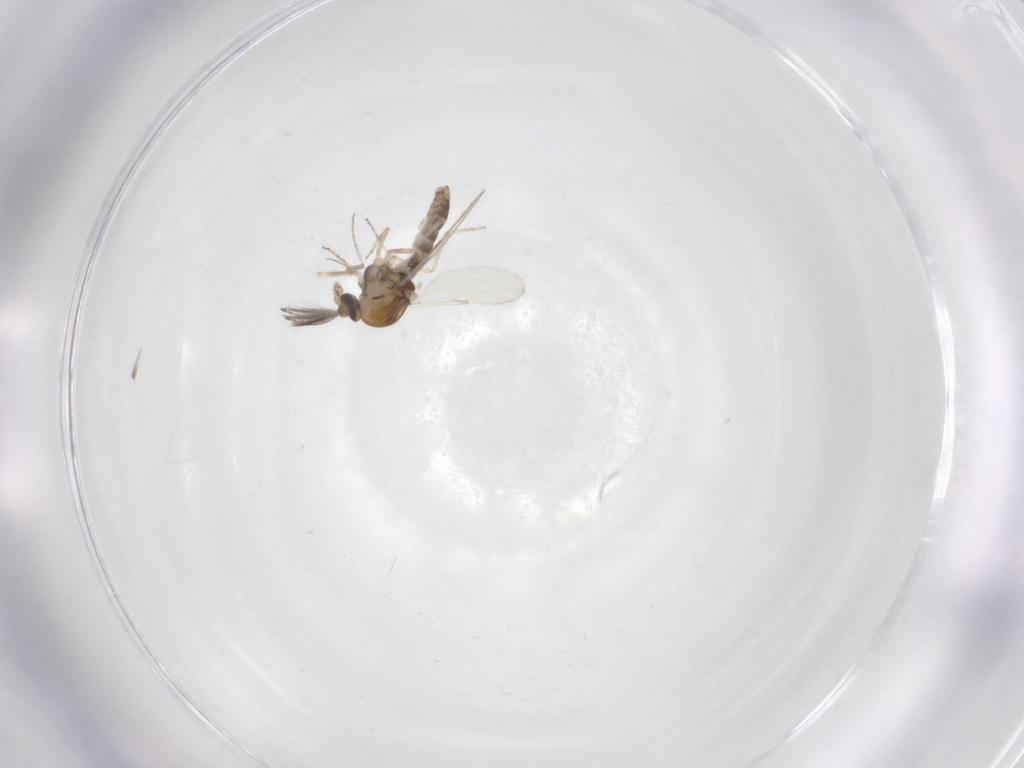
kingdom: Animalia
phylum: Arthropoda
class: Insecta
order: Diptera
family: Ceratopogonidae
